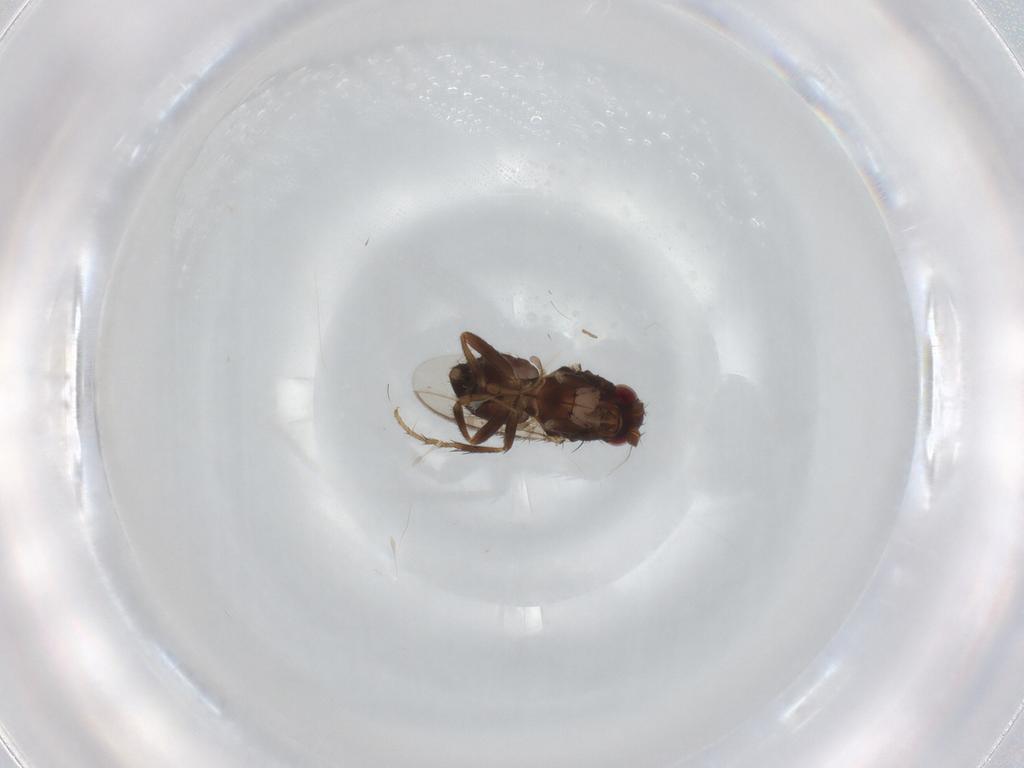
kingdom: Animalia
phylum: Arthropoda
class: Insecta
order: Diptera
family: Sphaeroceridae
